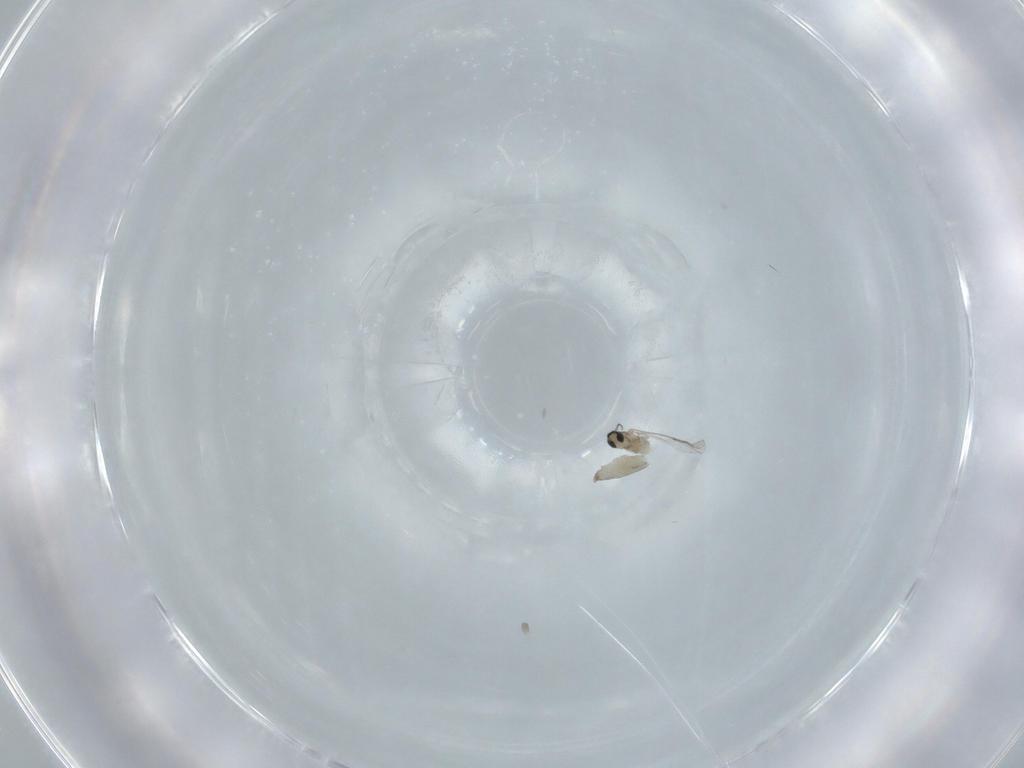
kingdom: Animalia
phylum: Arthropoda
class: Insecta
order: Diptera
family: Sciaridae
